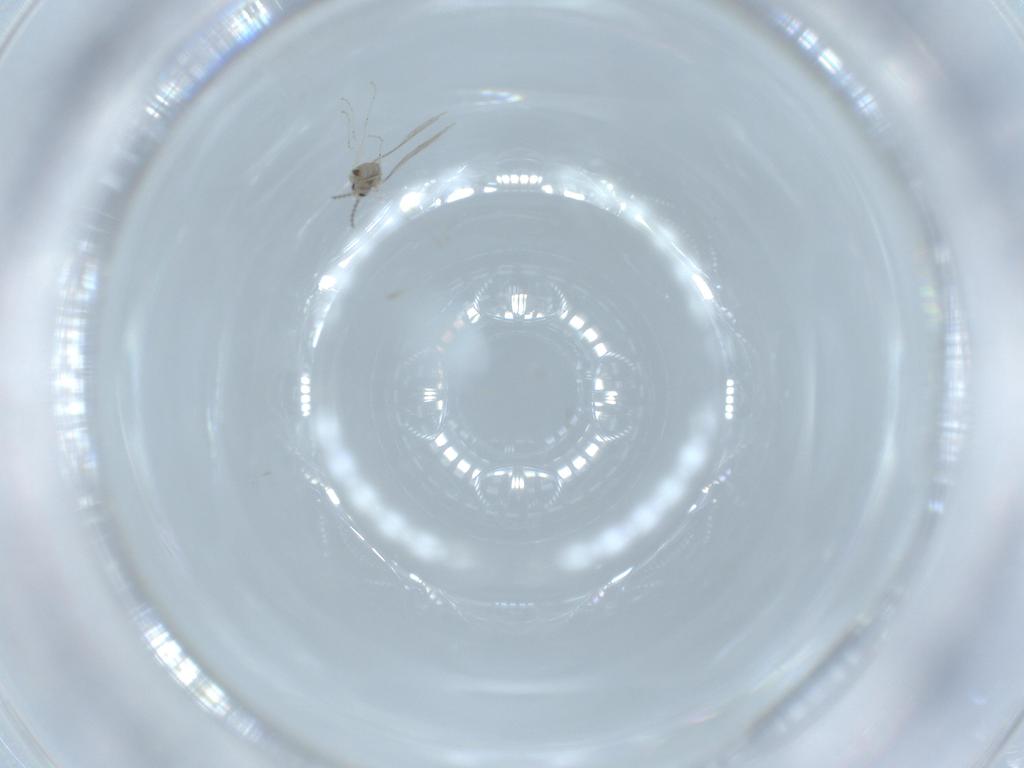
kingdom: Animalia
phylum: Arthropoda
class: Insecta
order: Diptera
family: Cecidomyiidae
